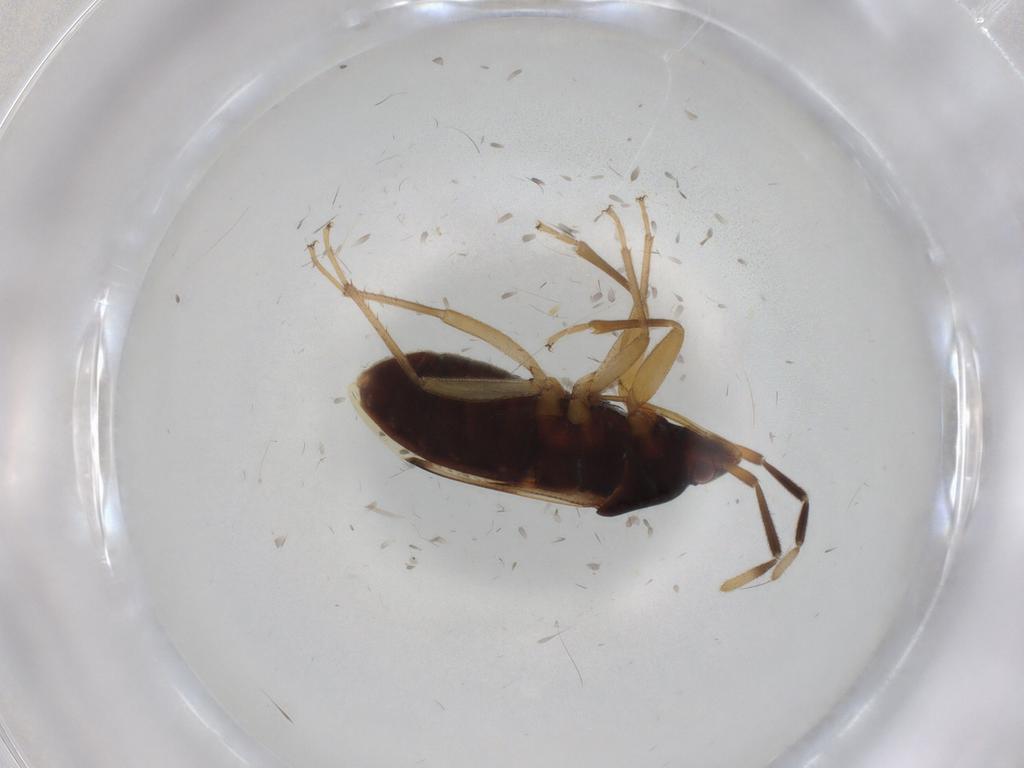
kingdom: Animalia
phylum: Arthropoda
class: Insecta
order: Hemiptera
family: Rhyparochromidae
